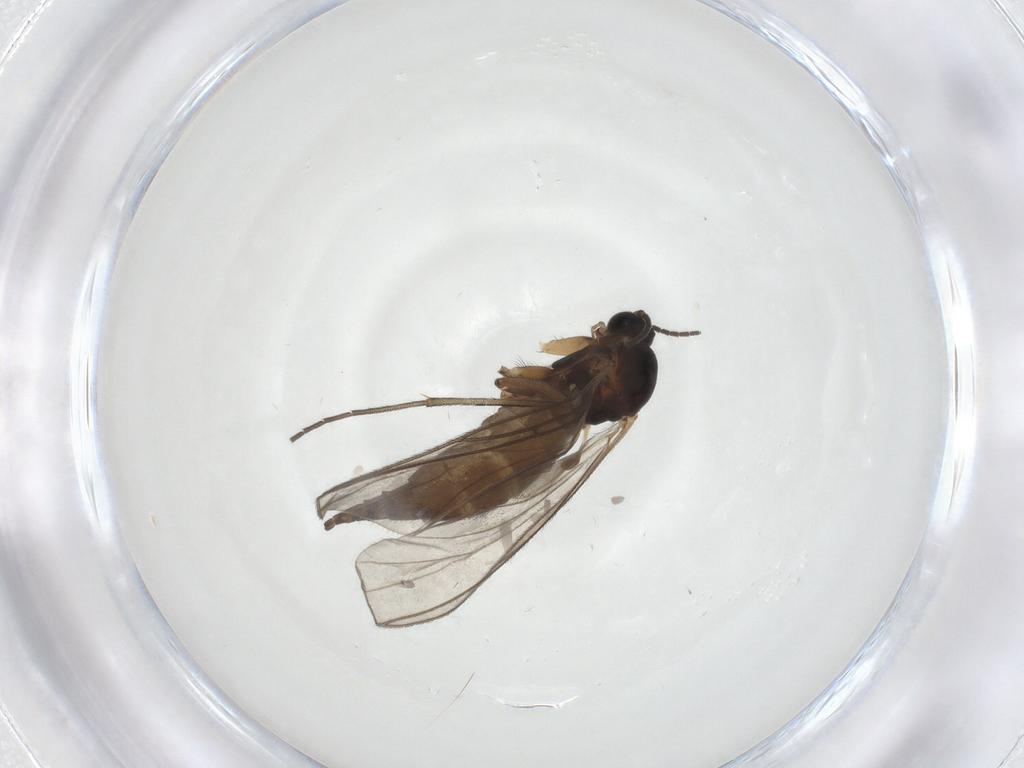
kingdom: Animalia
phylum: Arthropoda
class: Insecta
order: Diptera
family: Sciaridae
